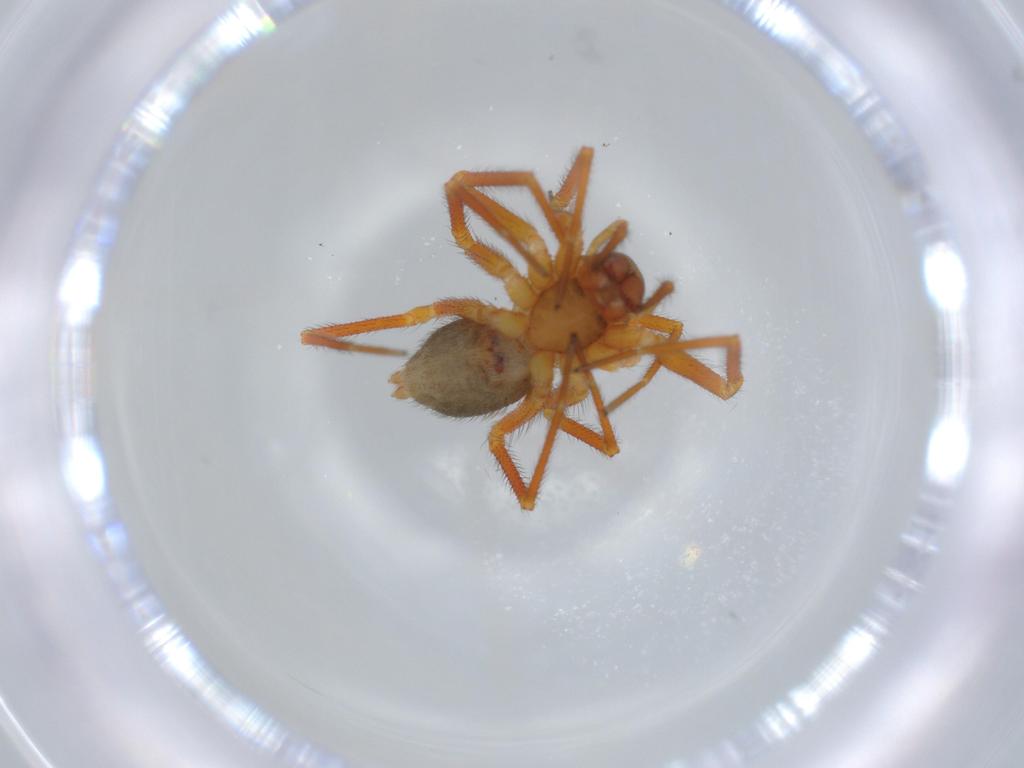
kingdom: Animalia
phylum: Arthropoda
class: Arachnida
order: Araneae
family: Linyphiidae
